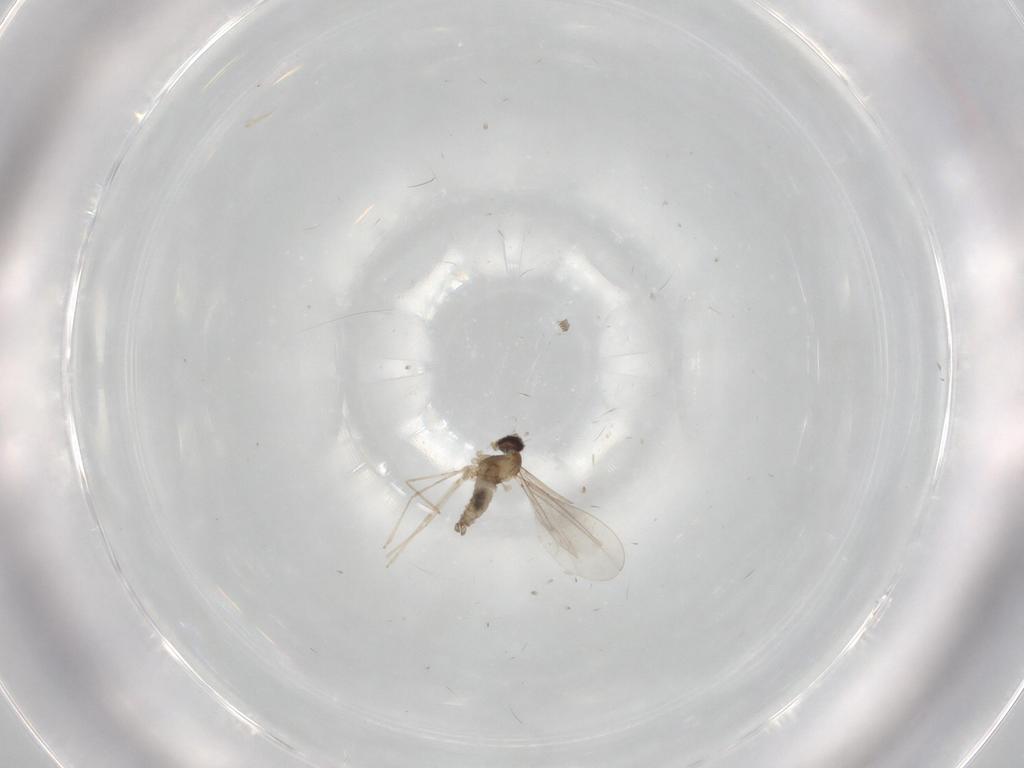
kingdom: Animalia
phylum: Arthropoda
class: Insecta
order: Diptera
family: Cecidomyiidae
